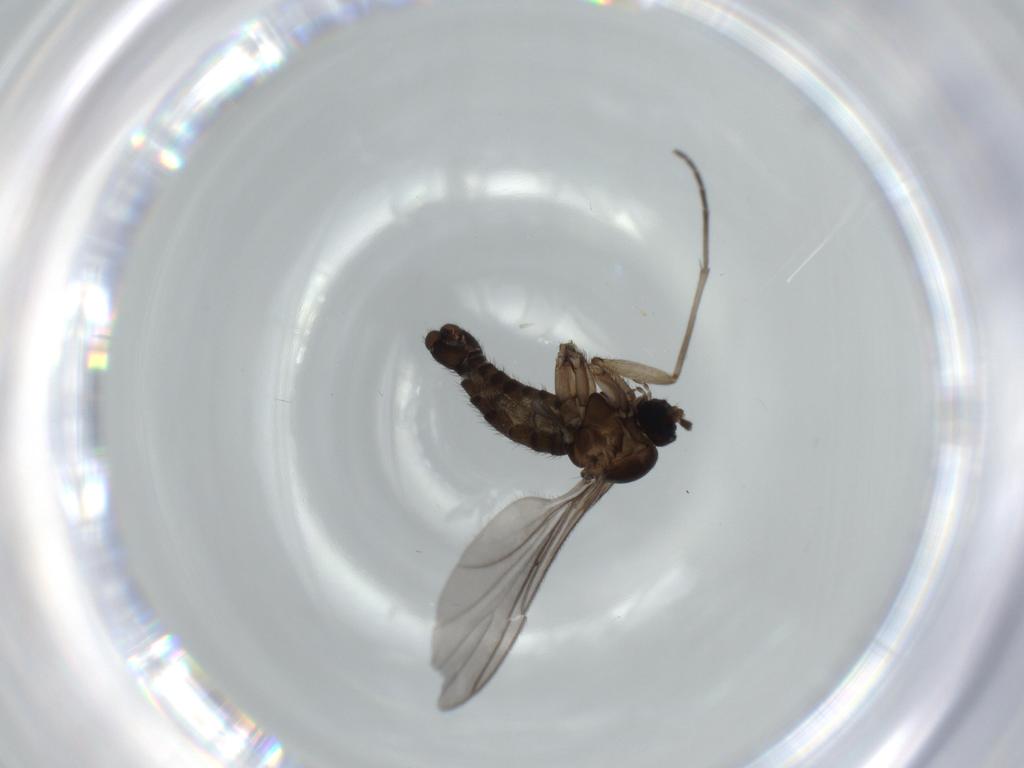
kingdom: Animalia
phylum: Arthropoda
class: Insecta
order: Diptera
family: Sciaridae
